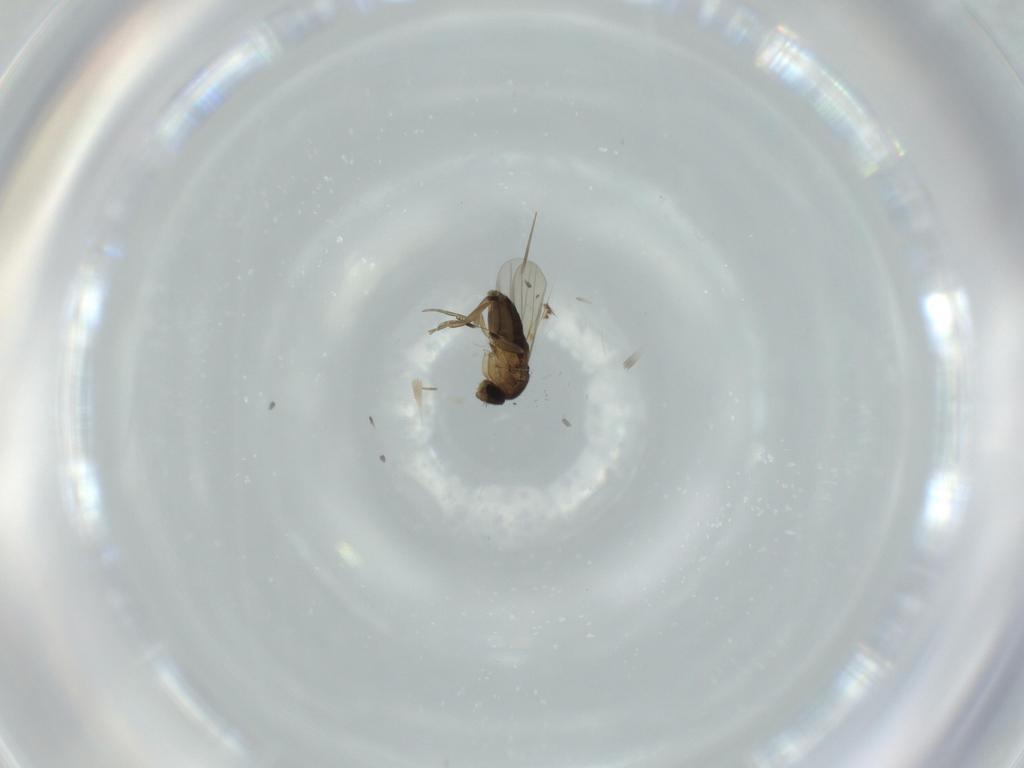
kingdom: Animalia
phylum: Arthropoda
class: Insecta
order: Diptera
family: Phoridae
